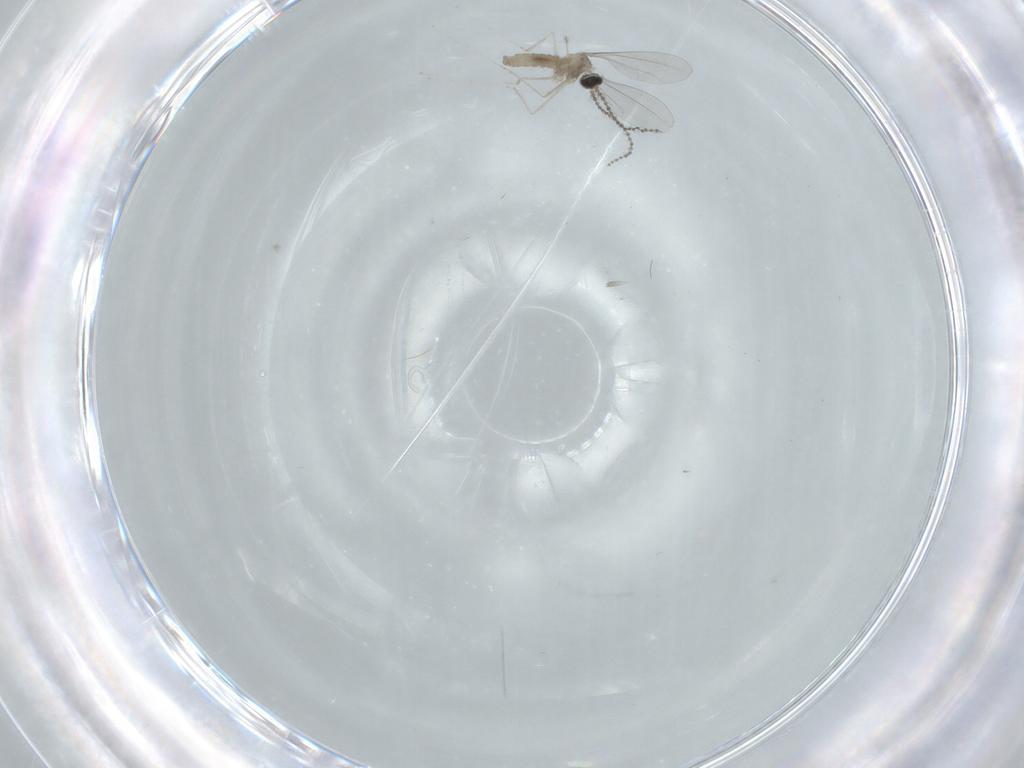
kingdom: Animalia
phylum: Arthropoda
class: Insecta
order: Diptera
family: Cecidomyiidae
